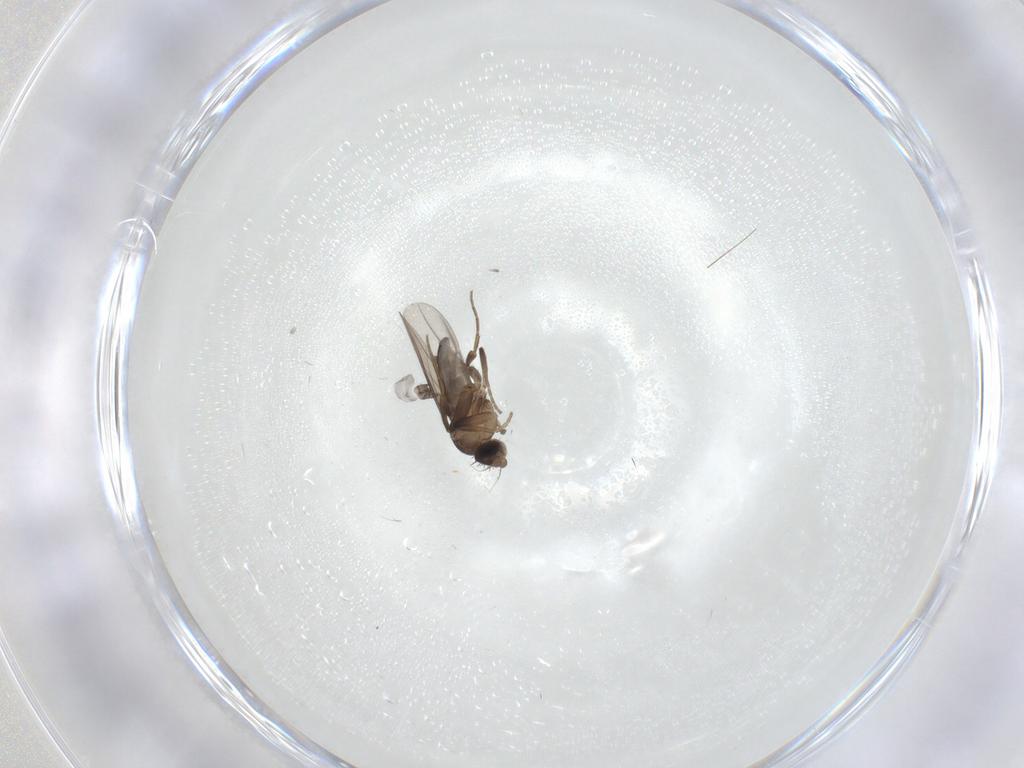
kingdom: Animalia
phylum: Arthropoda
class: Insecta
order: Diptera
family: Phoridae
